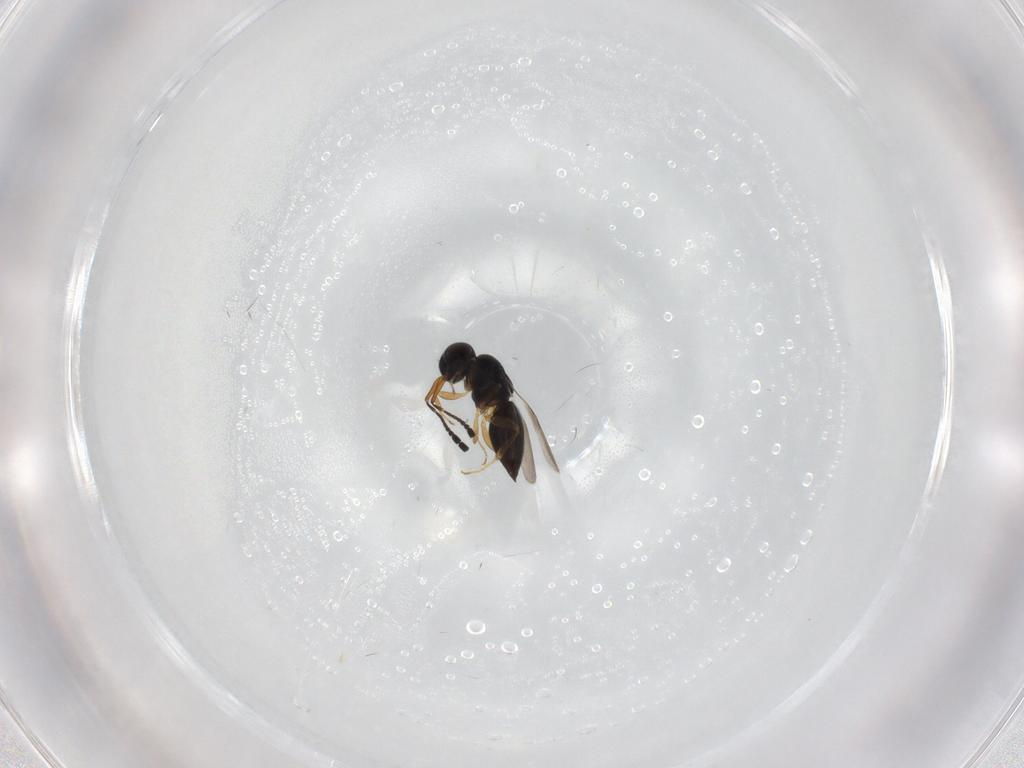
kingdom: Animalia
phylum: Arthropoda
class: Insecta
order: Hymenoptera
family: Ceraphronidae
